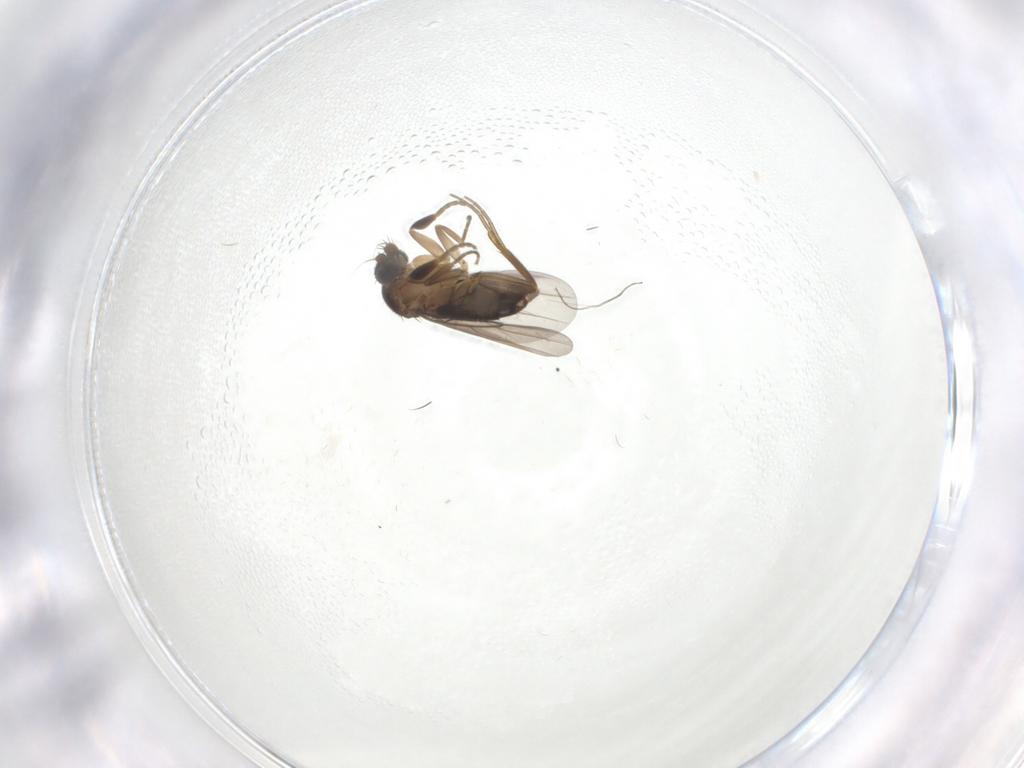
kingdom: Animalia
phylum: Arthropoda
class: Insecta
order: Diptera
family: Phoridae
